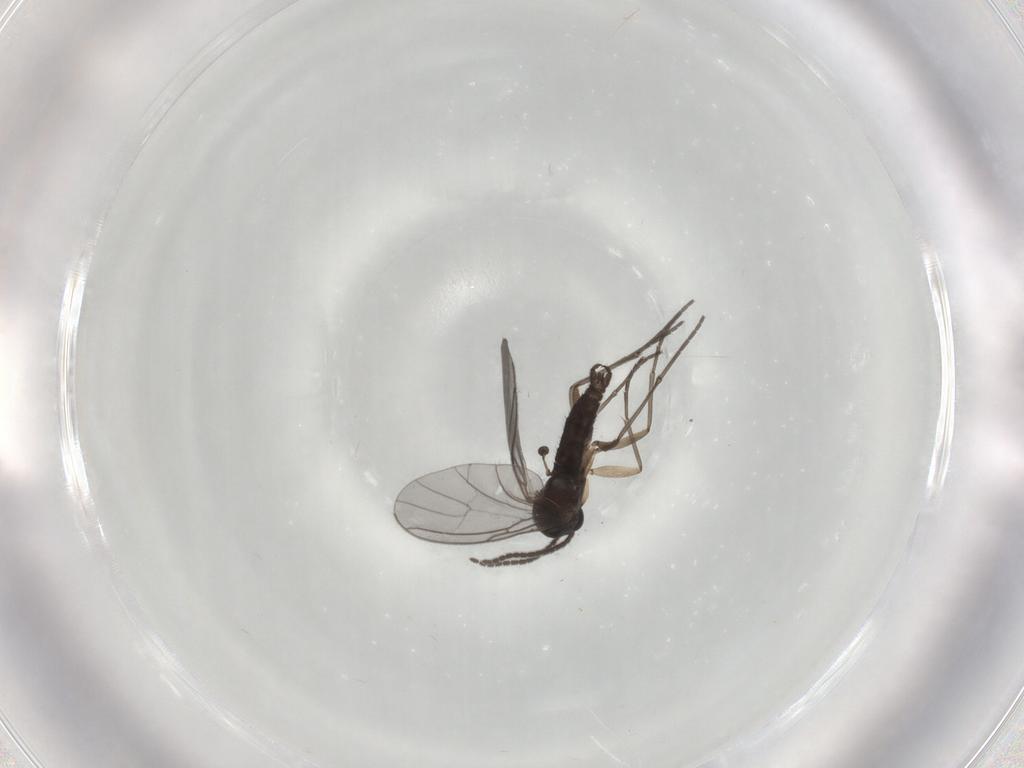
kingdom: Animalia
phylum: Arthropoda
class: Insecta
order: Diptera
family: Sciaridae
